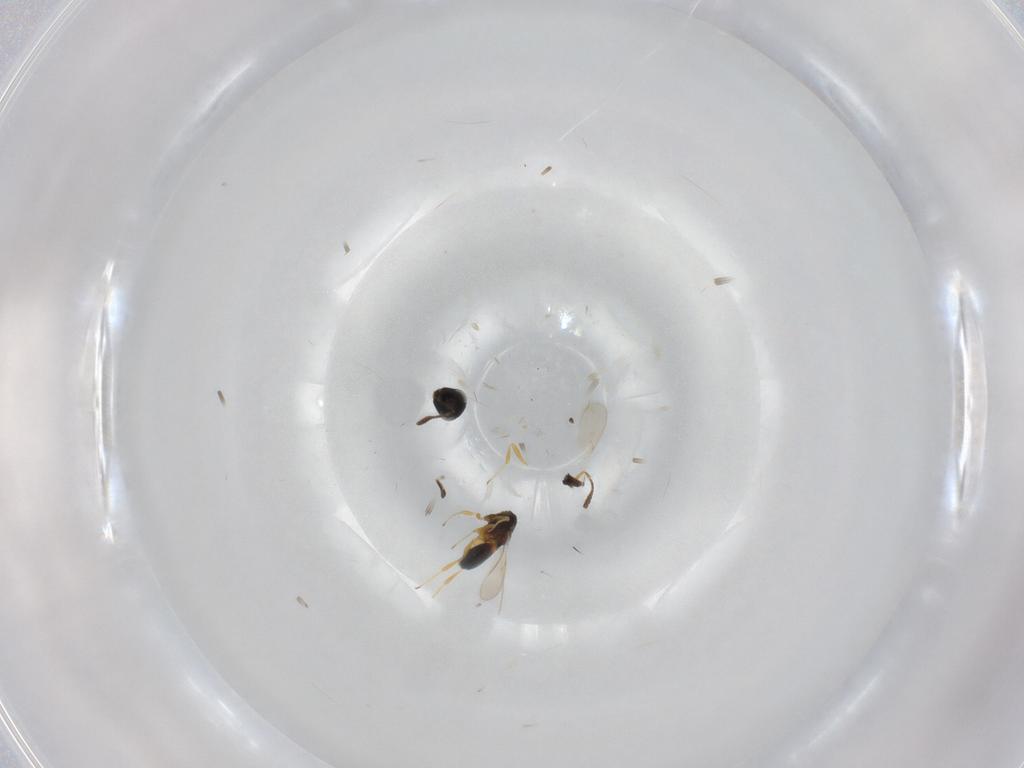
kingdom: Animalia
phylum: Arthropoda
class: Insecta
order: Hymenoptera
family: Scelionidae
